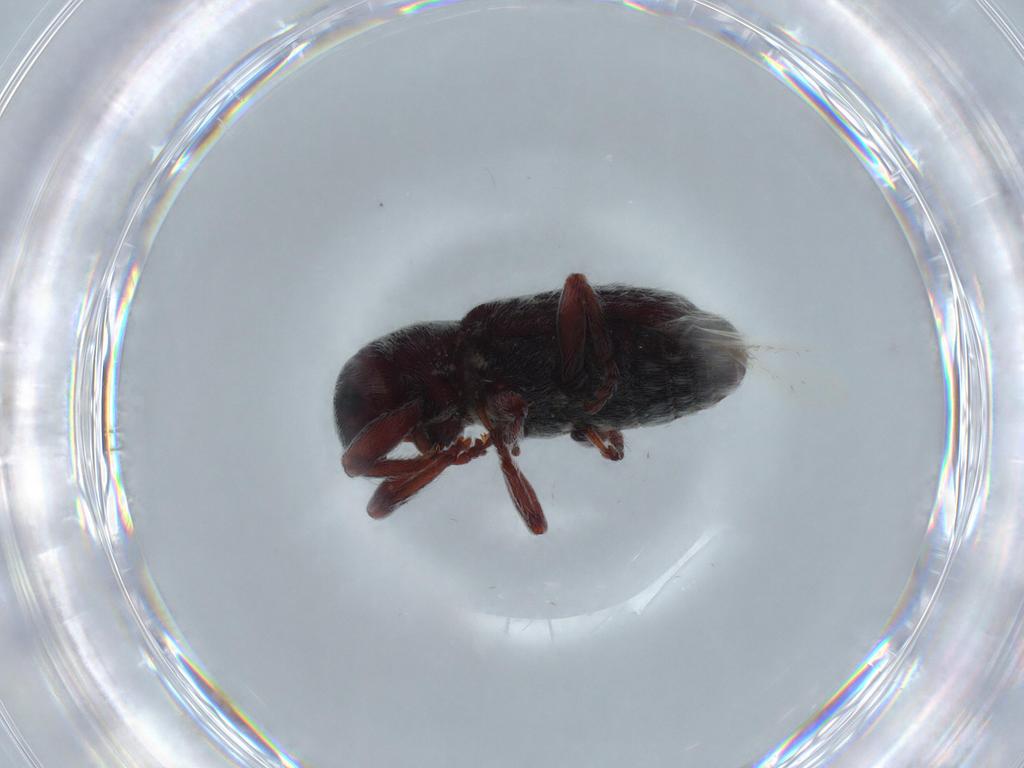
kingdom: Animalia
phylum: Arthropoda
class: Insecta
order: Coleoptera
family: Curculionidae
